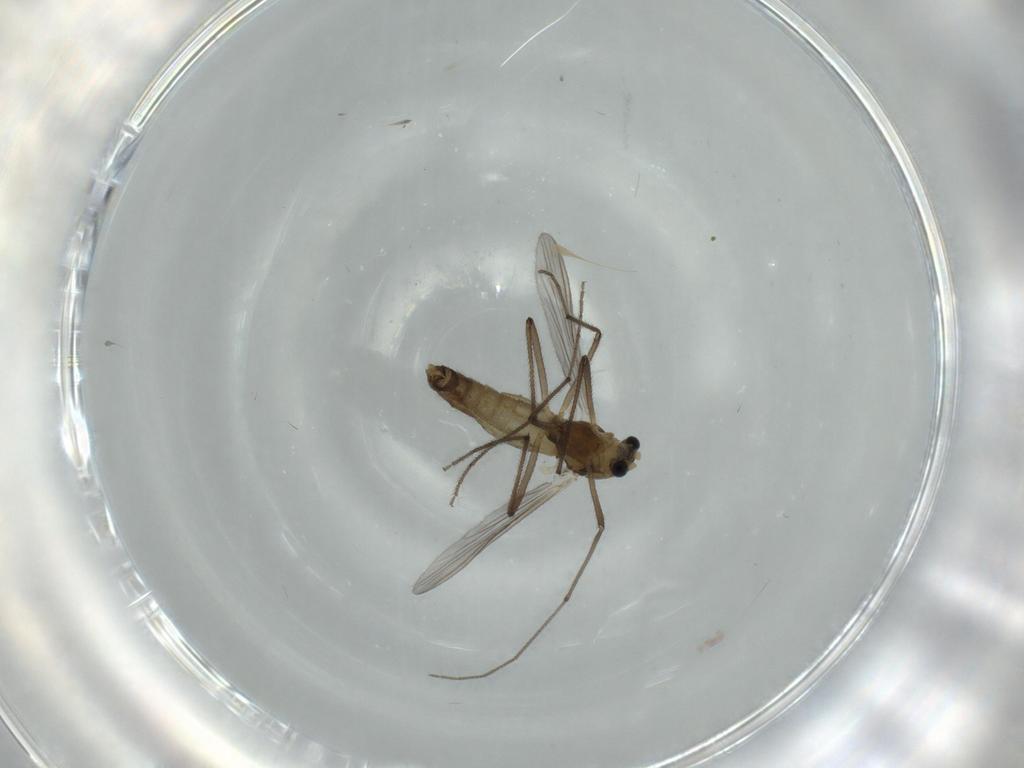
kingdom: Animalia
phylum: Arthropoda
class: Insecta
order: Diptera
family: Chironomidae
